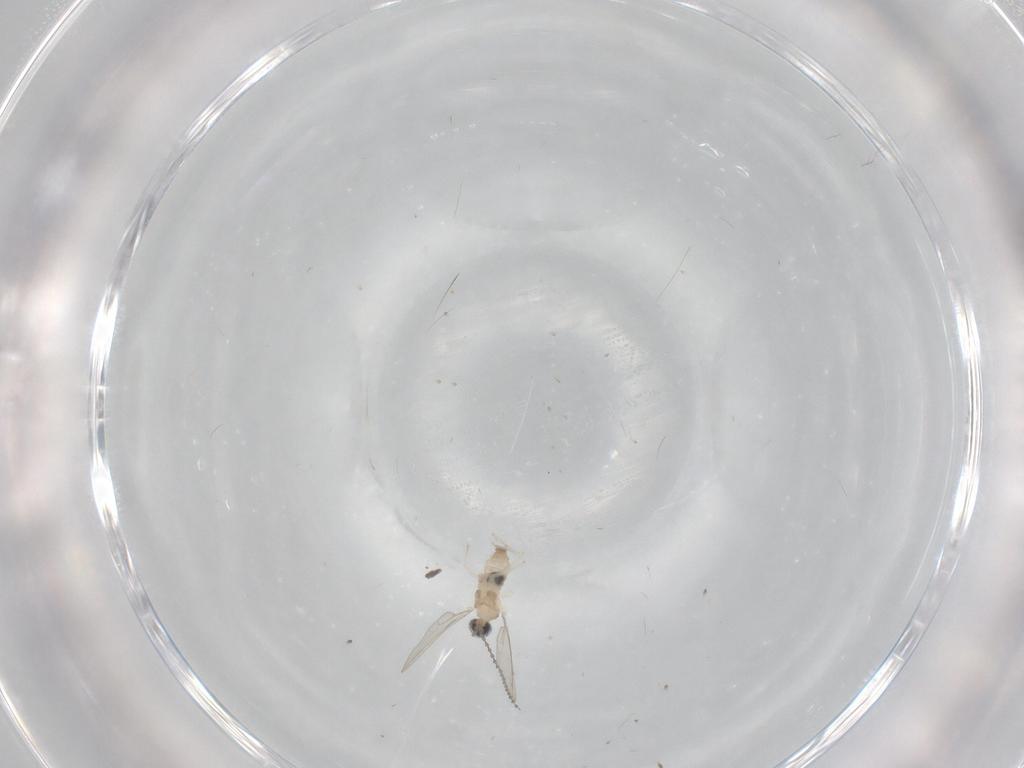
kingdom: Animalia
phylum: Arthropoda
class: Insecta
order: Diptera
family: Cecidomyiidae
